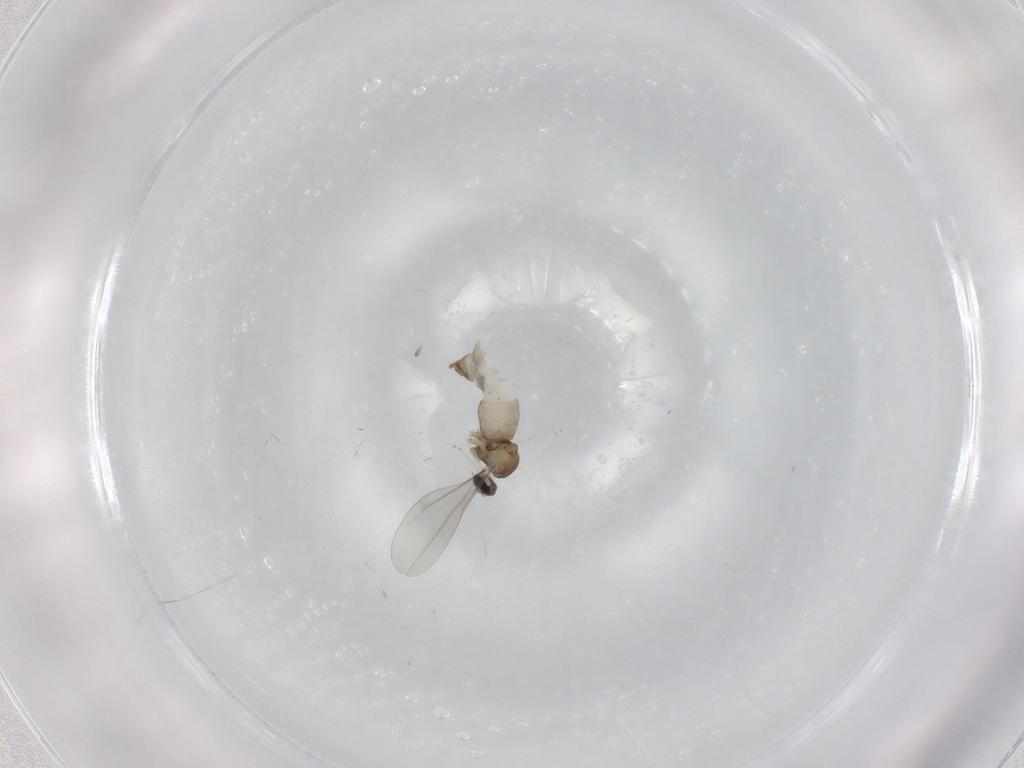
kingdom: Animalia
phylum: Arthropoda
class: Insecta
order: Diptera
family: Cecidomyiidae
